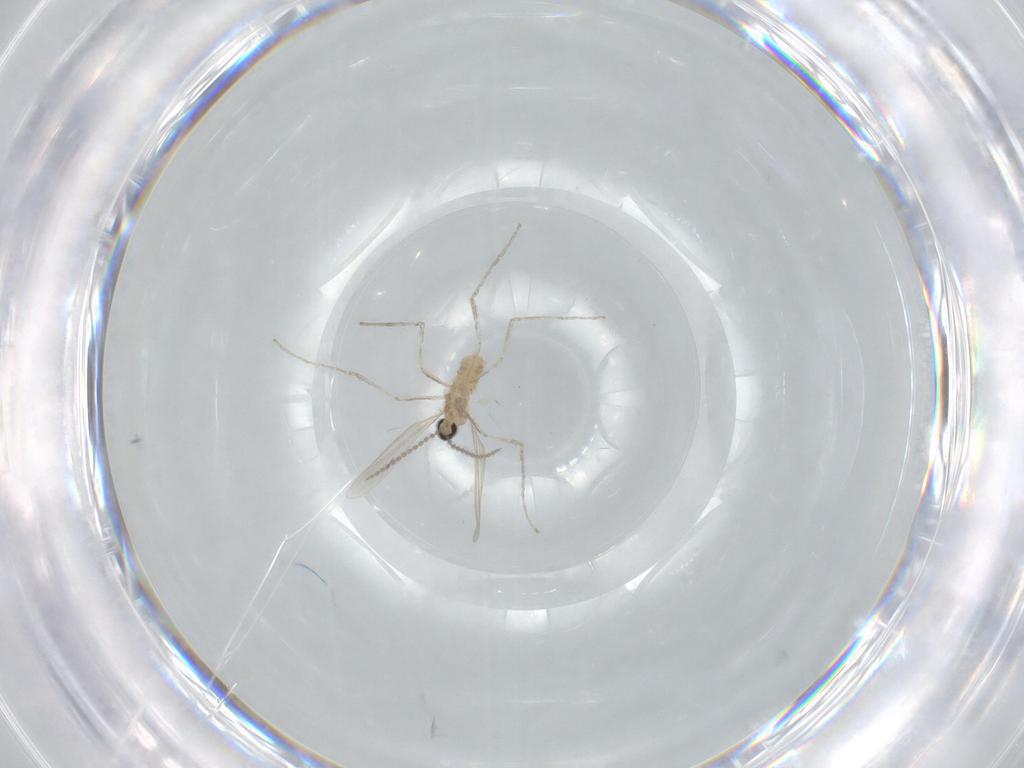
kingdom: Animalia
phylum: Arthropoda
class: Insecta
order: Diptera
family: Cecidomyiidae
